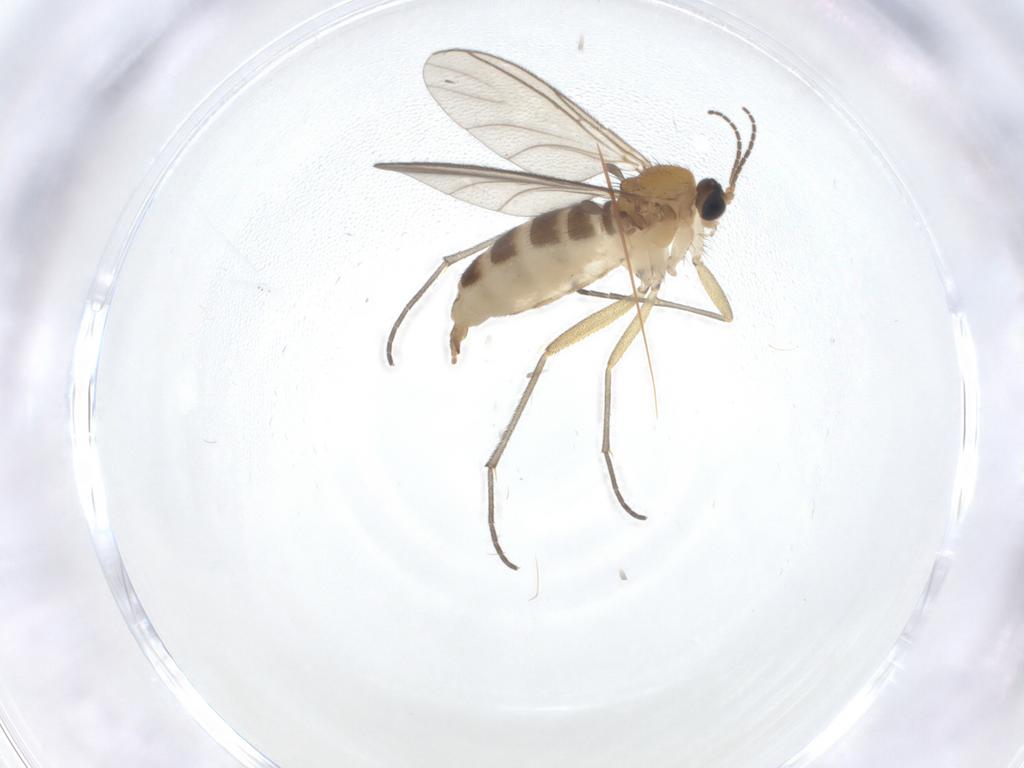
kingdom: Animalia
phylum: Arthropoda
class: Insecta
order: Diptera
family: Sciaridae
